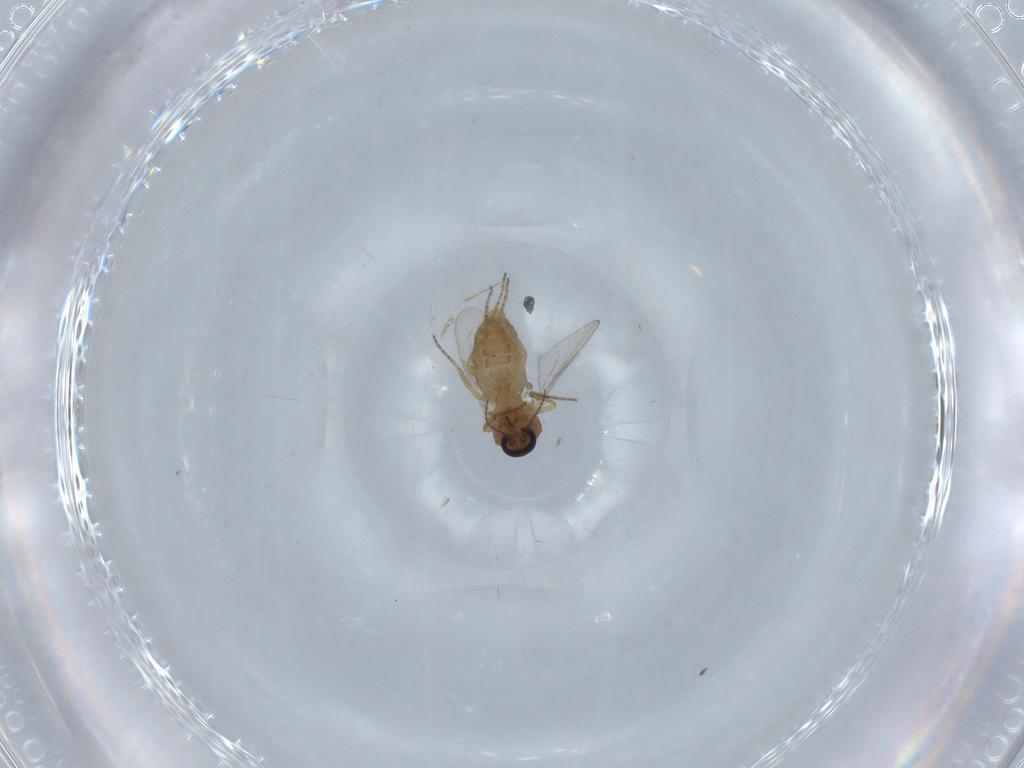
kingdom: Animalia
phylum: Arthropoda
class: Insecta
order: Diptera
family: Ceratopogonidae
